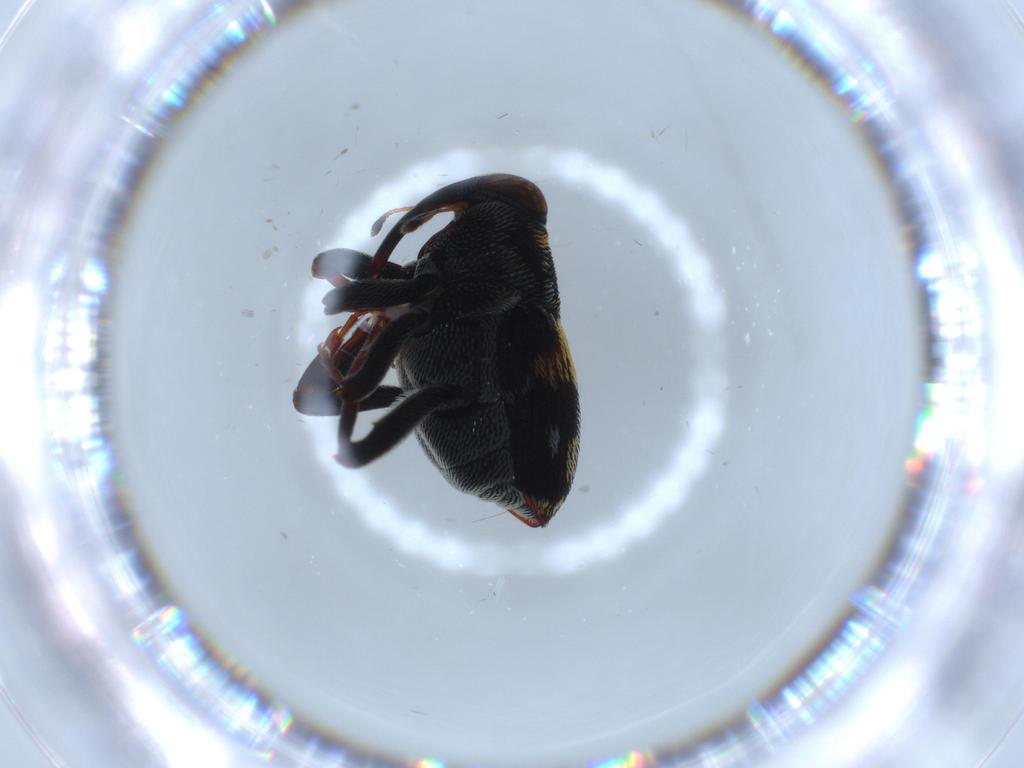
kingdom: Animalia
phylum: Arthropoda
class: Insecta
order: Coleoptera
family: Curculionidae
